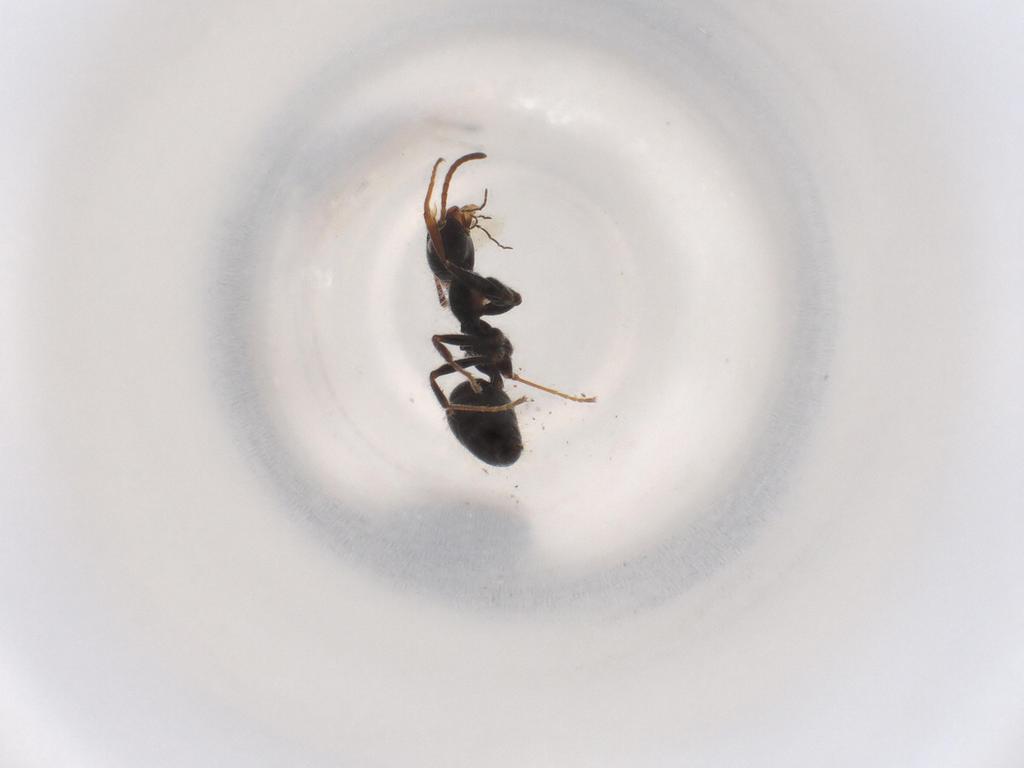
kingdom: Animalia
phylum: Arthropoda
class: Insecta
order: Hymenoptera
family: Formicidae
